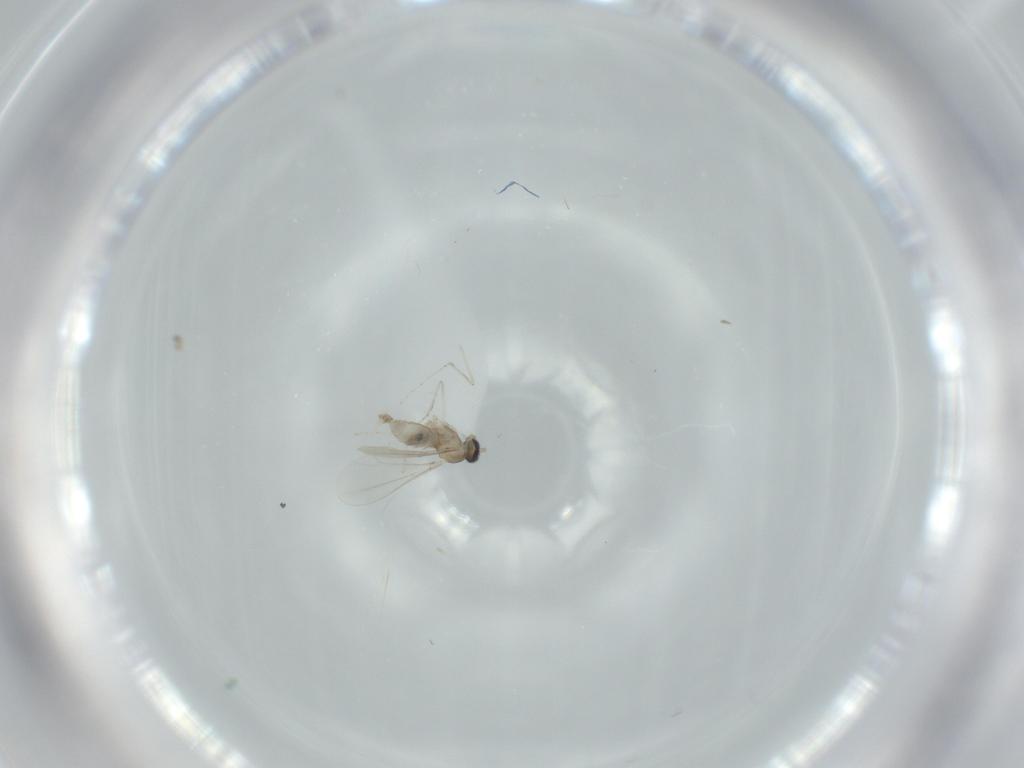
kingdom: Animalia
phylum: Arthropoda
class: Insecta
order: Diptera
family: Cecidomyiidae
